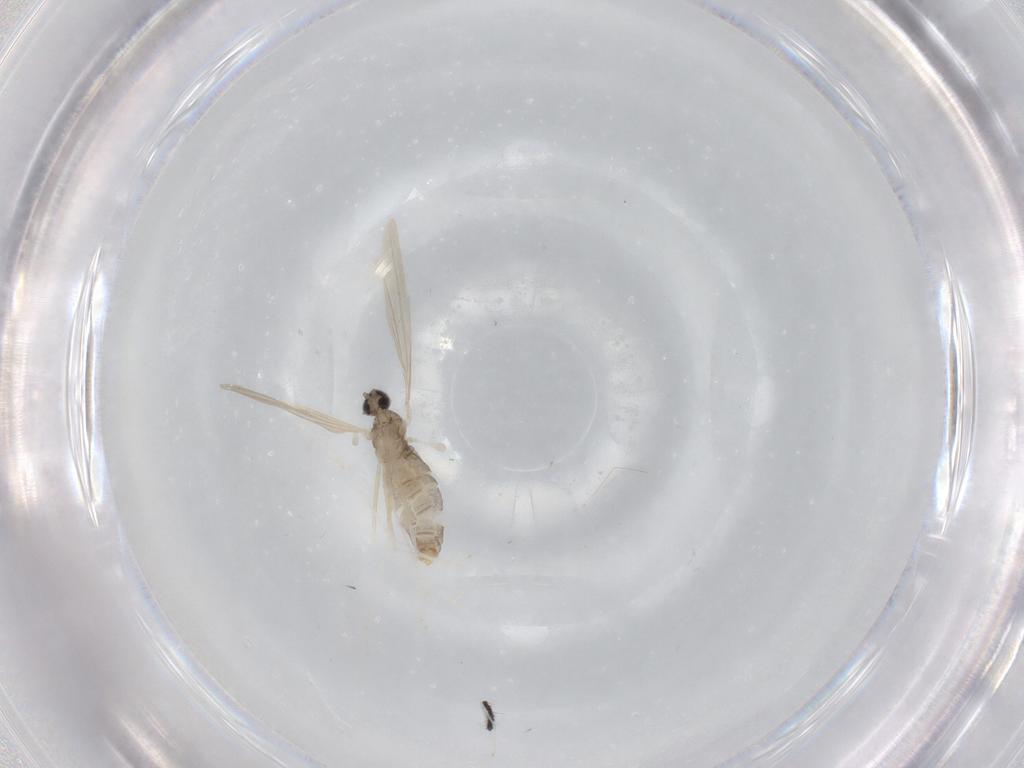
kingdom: Animalia
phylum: Arthropoda
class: Insecta
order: Diptera
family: Cecidomyiidae
